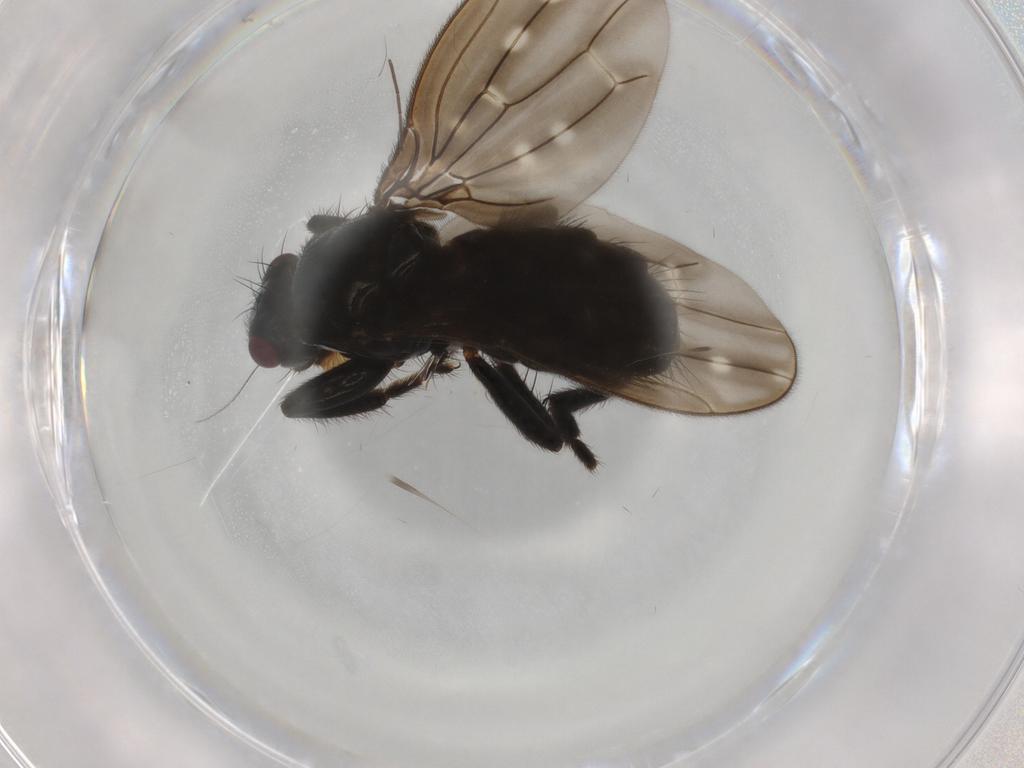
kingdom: Animalia
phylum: Arthropoda
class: Insecta
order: Diptera
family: Sphaeroceridae
